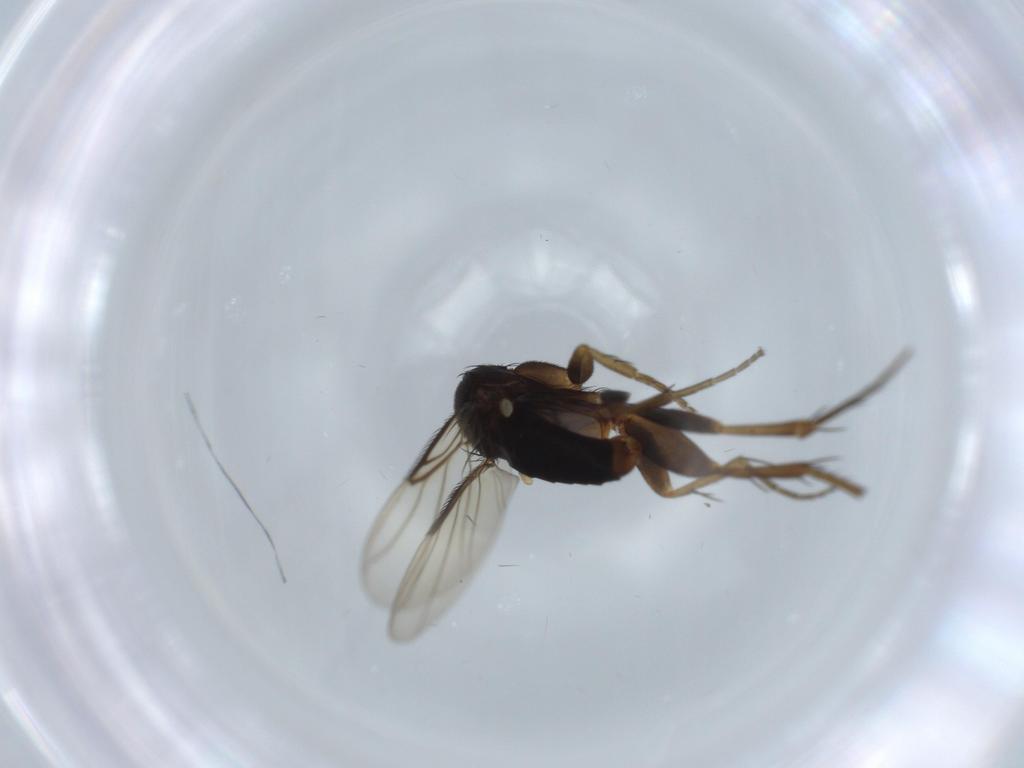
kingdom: Animalia
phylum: Arthropoda
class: Insecta
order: Diptera
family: Phoridae
